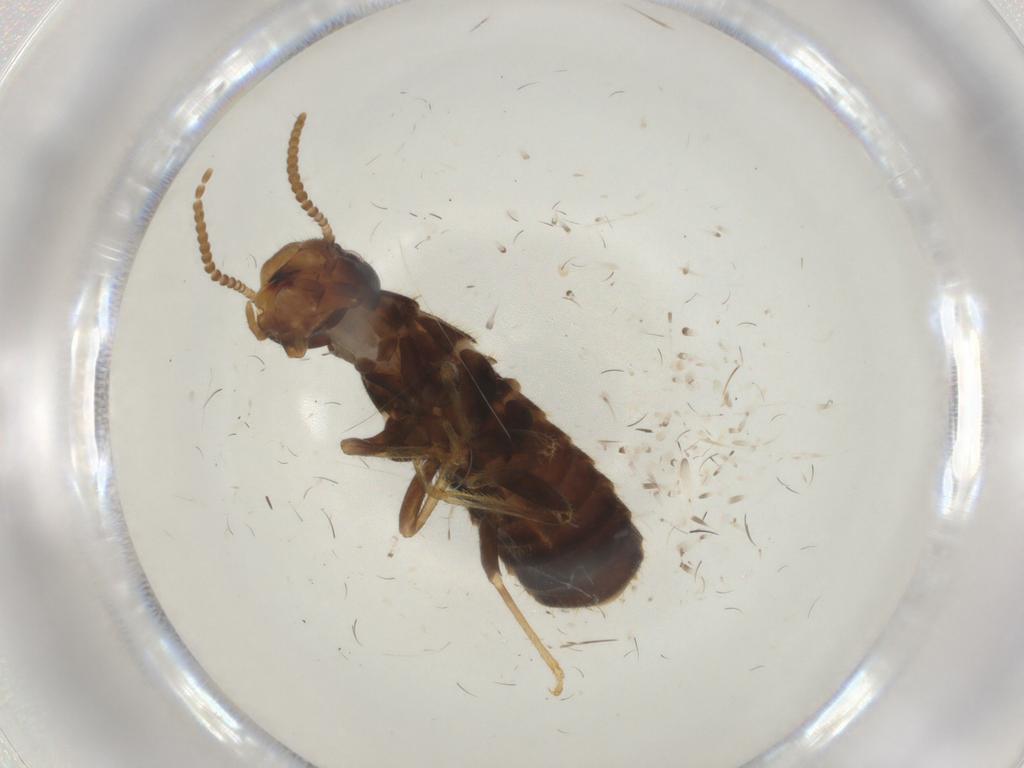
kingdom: Animalia
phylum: Arthropoda
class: Insecta
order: Blattodea
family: Rhinotermitidae
